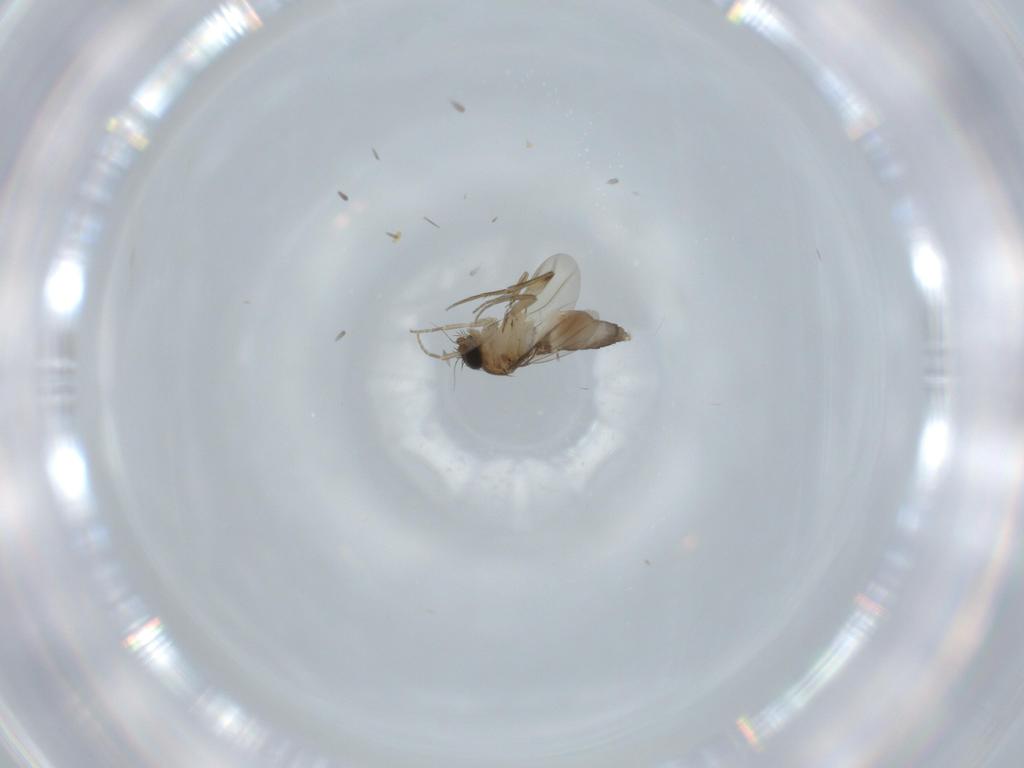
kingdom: Animalia
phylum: Arthropoda
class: Insecta
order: Diptera
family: Phoridae
